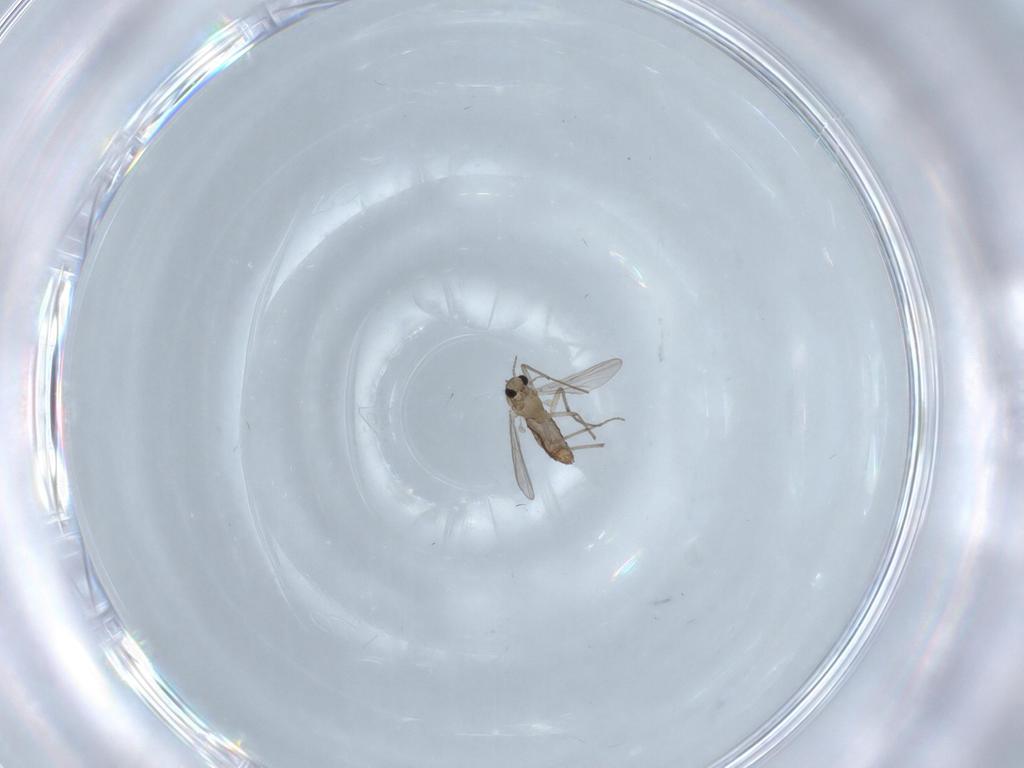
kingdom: Animalia
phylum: Arthropoda
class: Insecta
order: Diptera
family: Chironomidae
